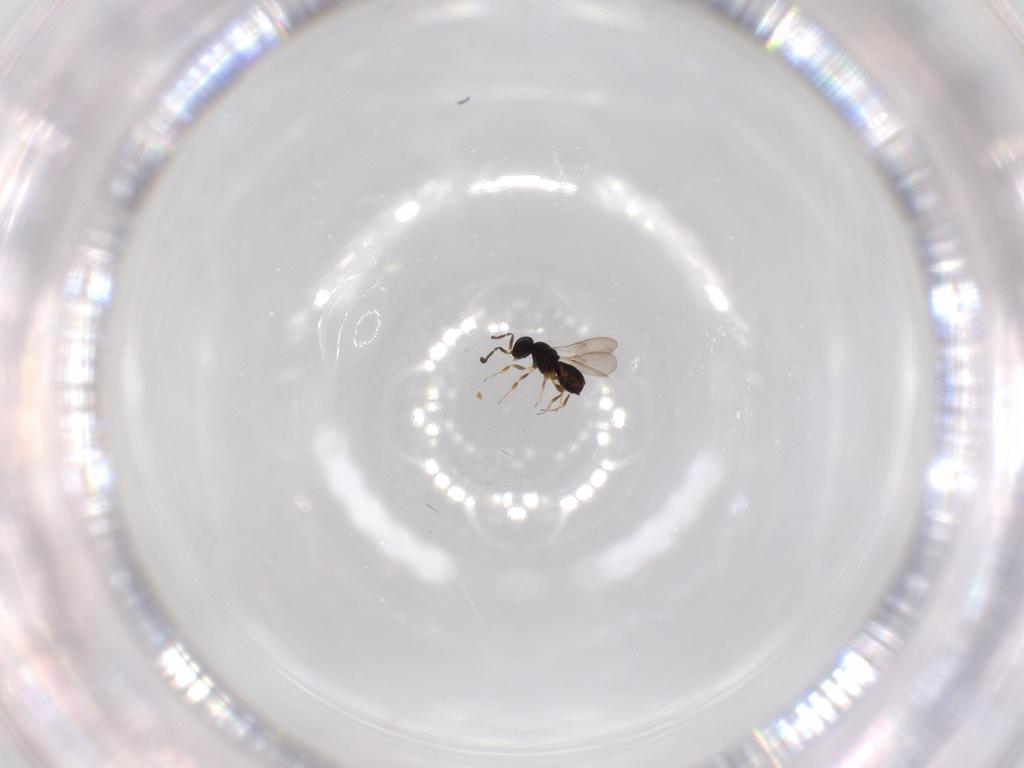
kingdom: Animalia
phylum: Arthropoda
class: Insecta
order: Hymenoptera
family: Scelionidae
